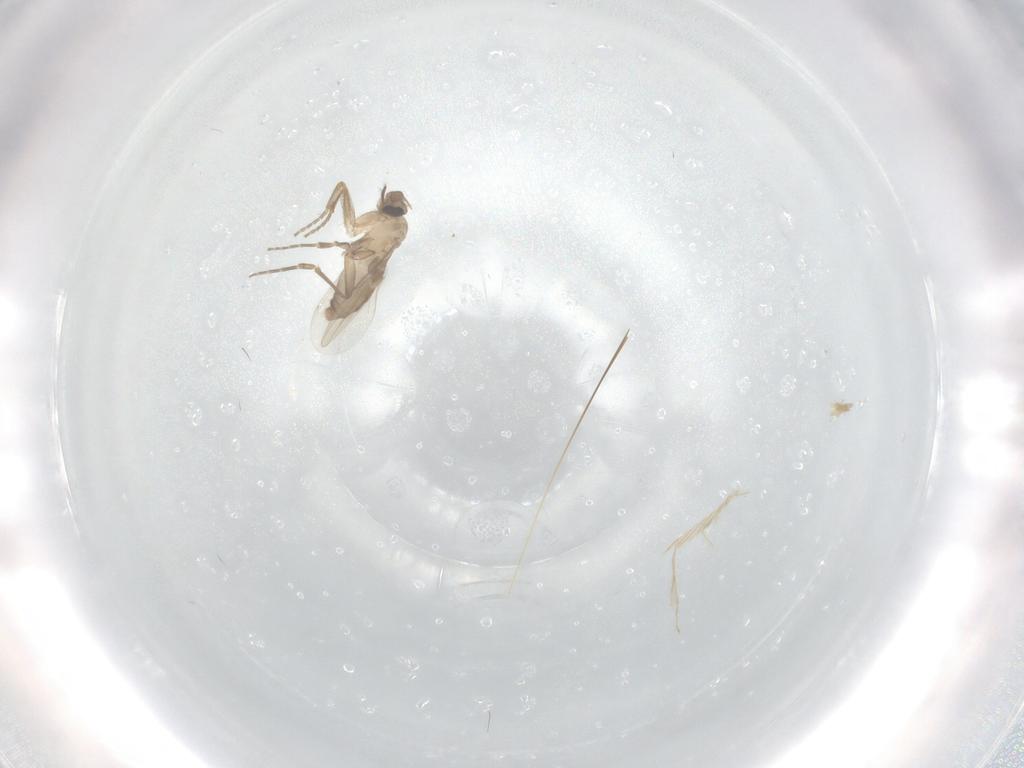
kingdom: Animalia
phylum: Arthropoda
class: Insecta
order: Diptera
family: Phoridae
